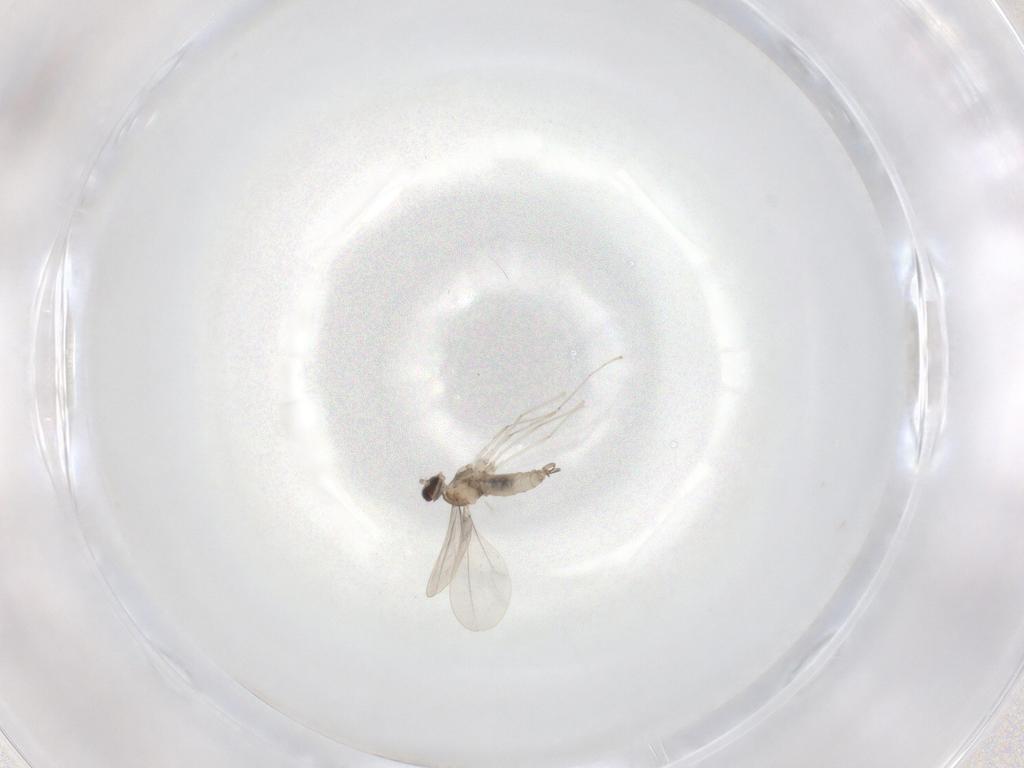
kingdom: Animalia
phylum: Arthropoda
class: Insecta
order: Diptera
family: Cecidomyiidae
